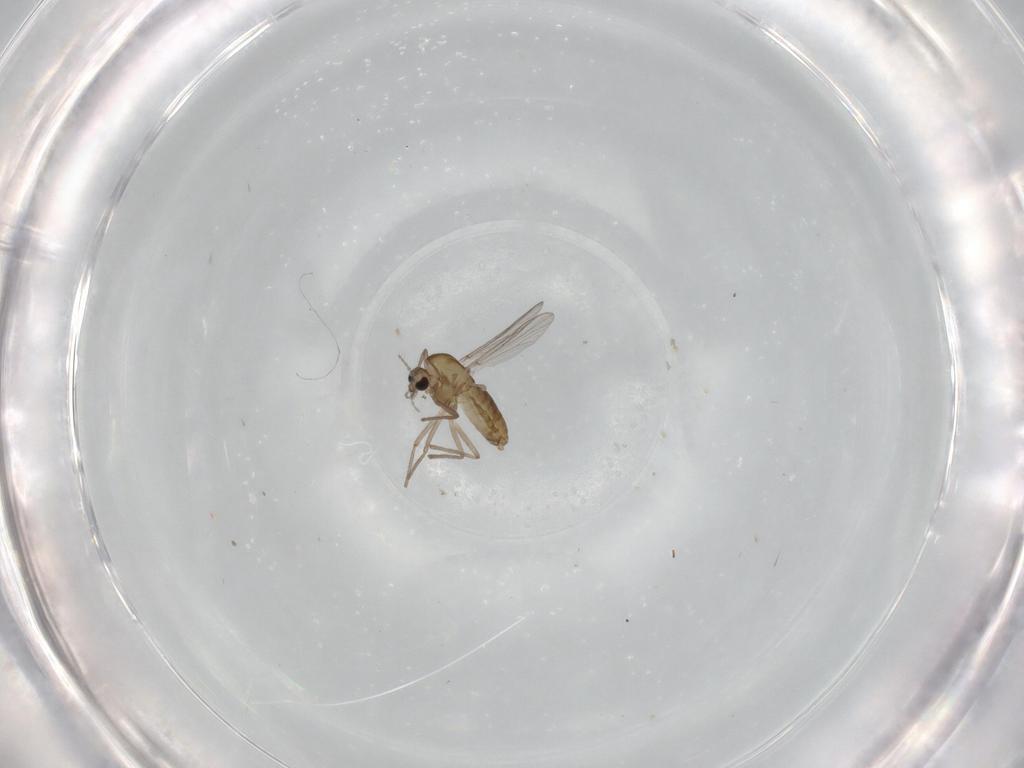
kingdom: Animalia
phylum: Arthropoda
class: Insecta
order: Diptera
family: Chironomidae
